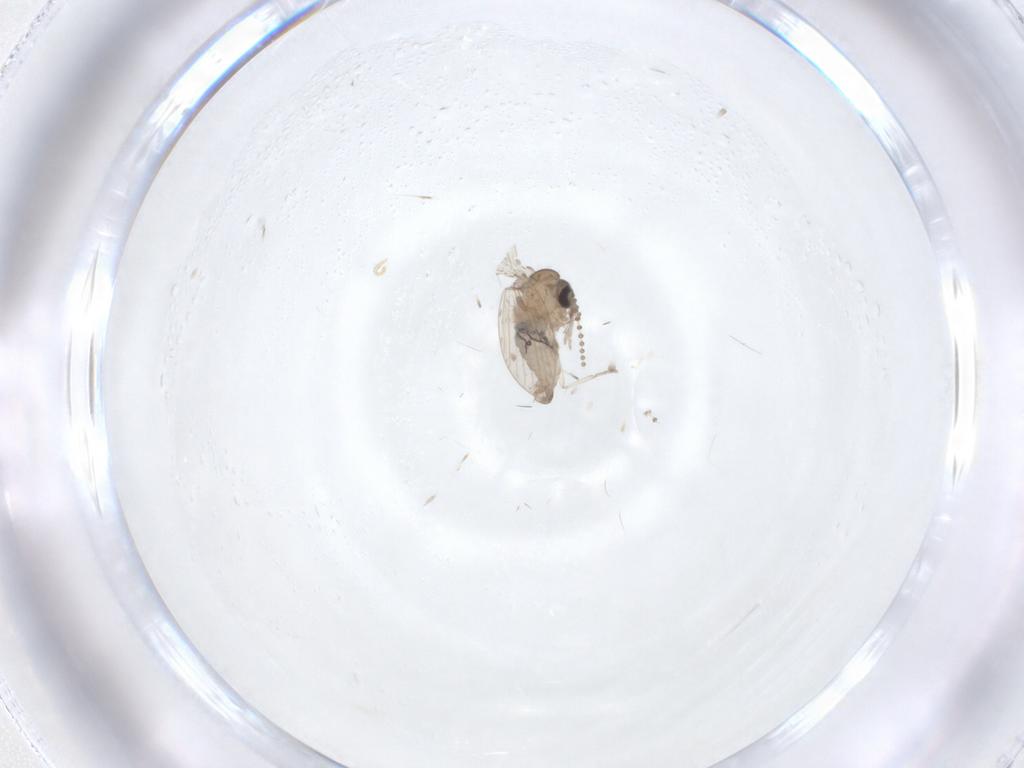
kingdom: Animalia
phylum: Arthropoda
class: Insecta
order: Diptera
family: Psychodidae
